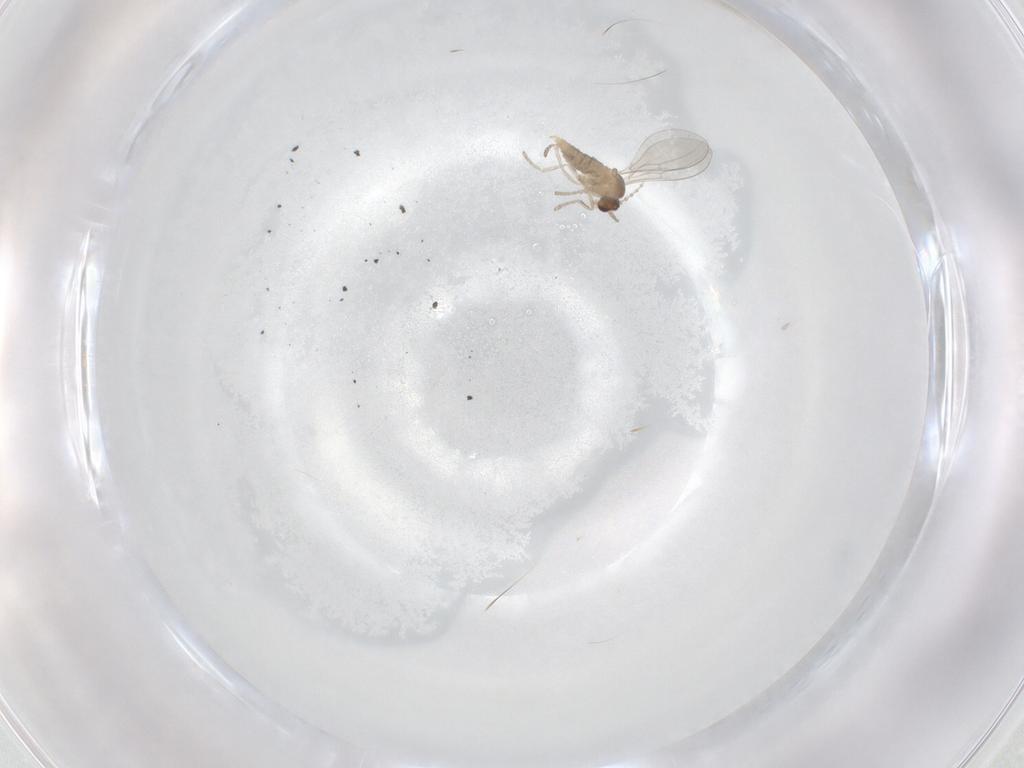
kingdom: Animalia
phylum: Arthropoda
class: Insecta
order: Diptera
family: Cecidomyiidae
